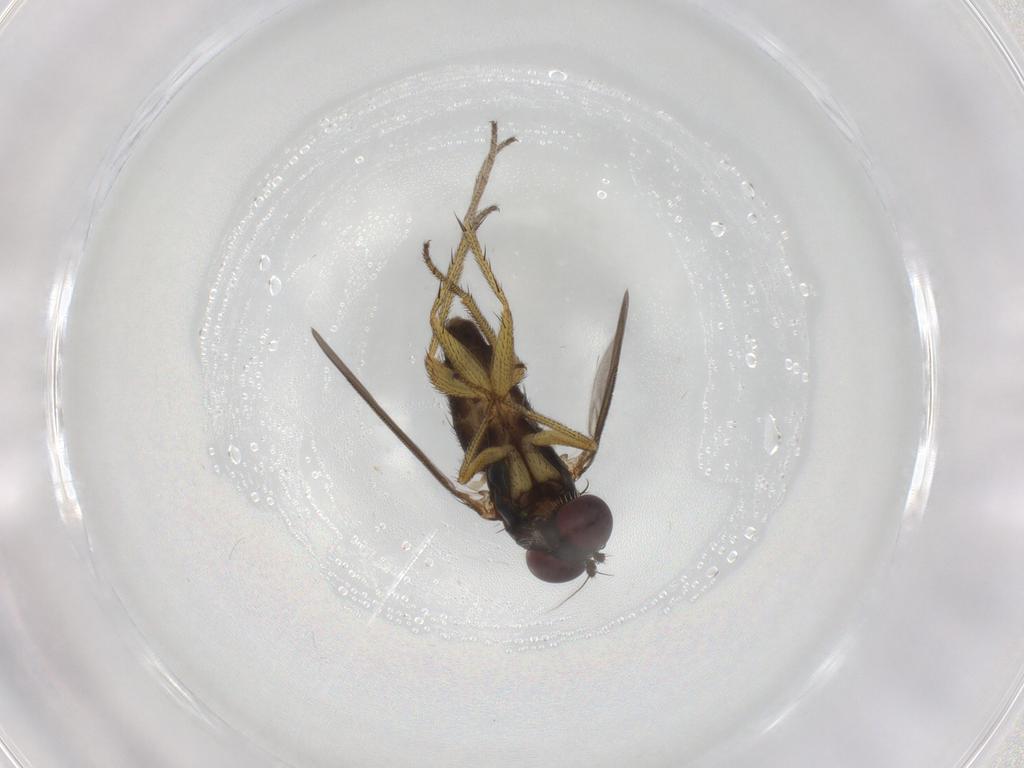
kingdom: Animalia
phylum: Arthropoda
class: Insecta
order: Diptera
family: Dolichopodidae
